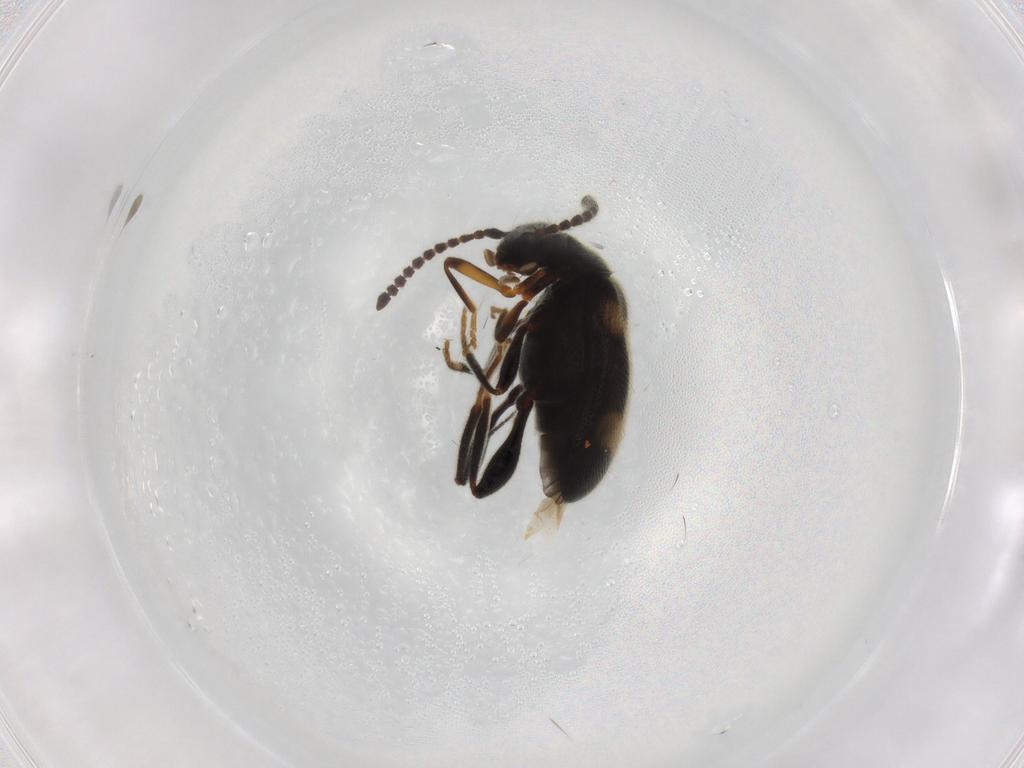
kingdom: Animalia
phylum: Arthropoda
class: Insecta
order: Coleoptera
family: Aderidae
